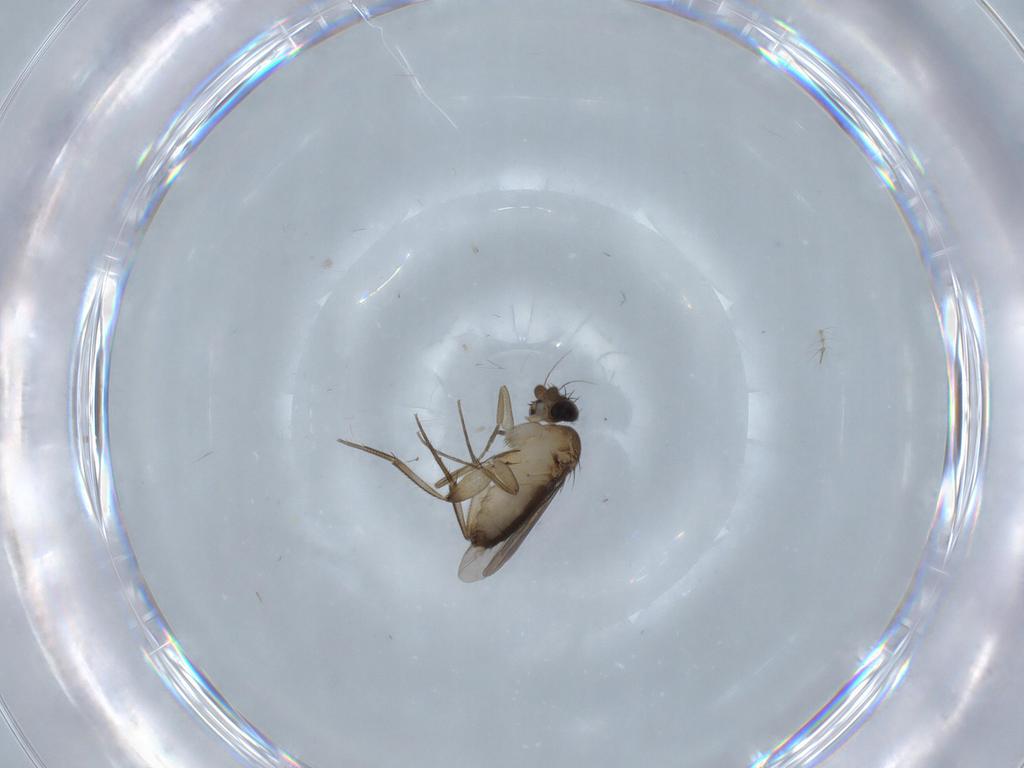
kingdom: Animalia
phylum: Arthropoda
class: Insecta
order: Diptera
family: Phoridae
